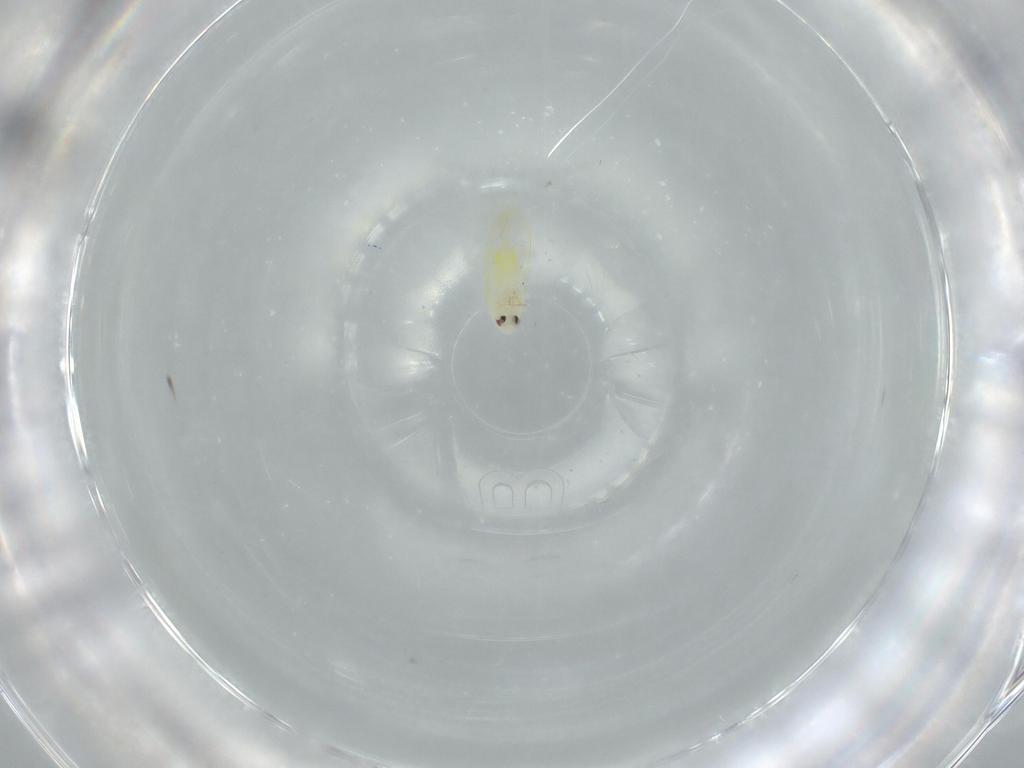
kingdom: Animalia
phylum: Arthropoda
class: Insecta
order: Hemiptera
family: Aleyrodidae
